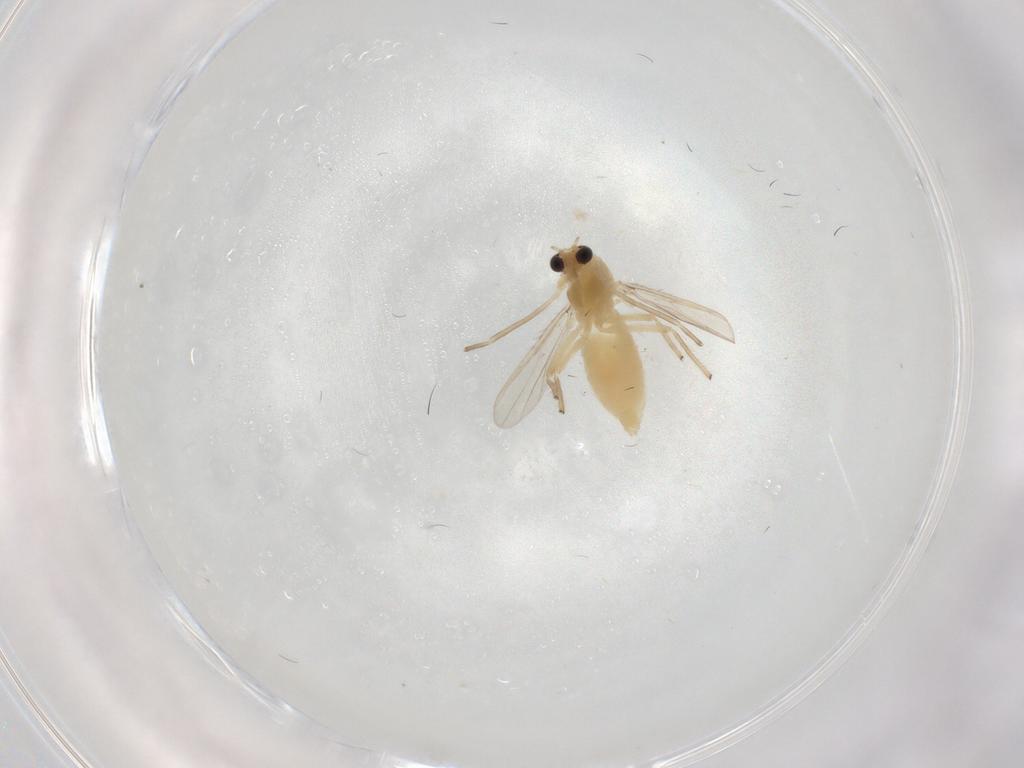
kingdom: Animalia
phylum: Arthropoda
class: Insecta
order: Diptera
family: Chironomidae
